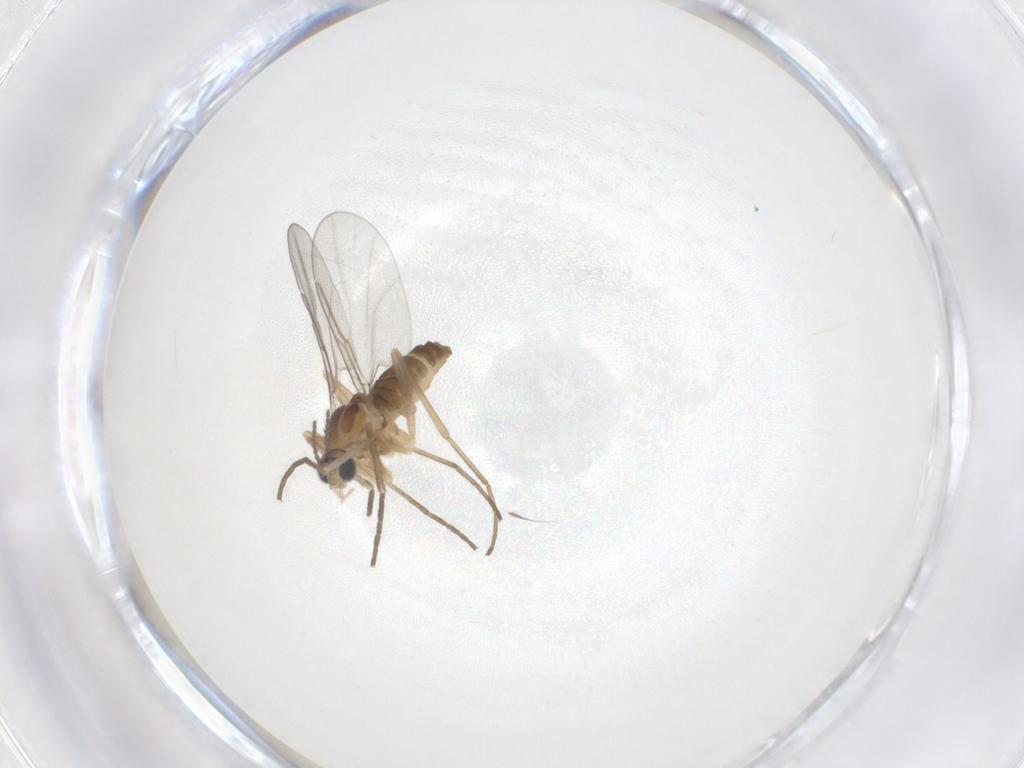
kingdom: Animalia
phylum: Arthropoda
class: Insecta
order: Diptera
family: Cecidomyiidae
